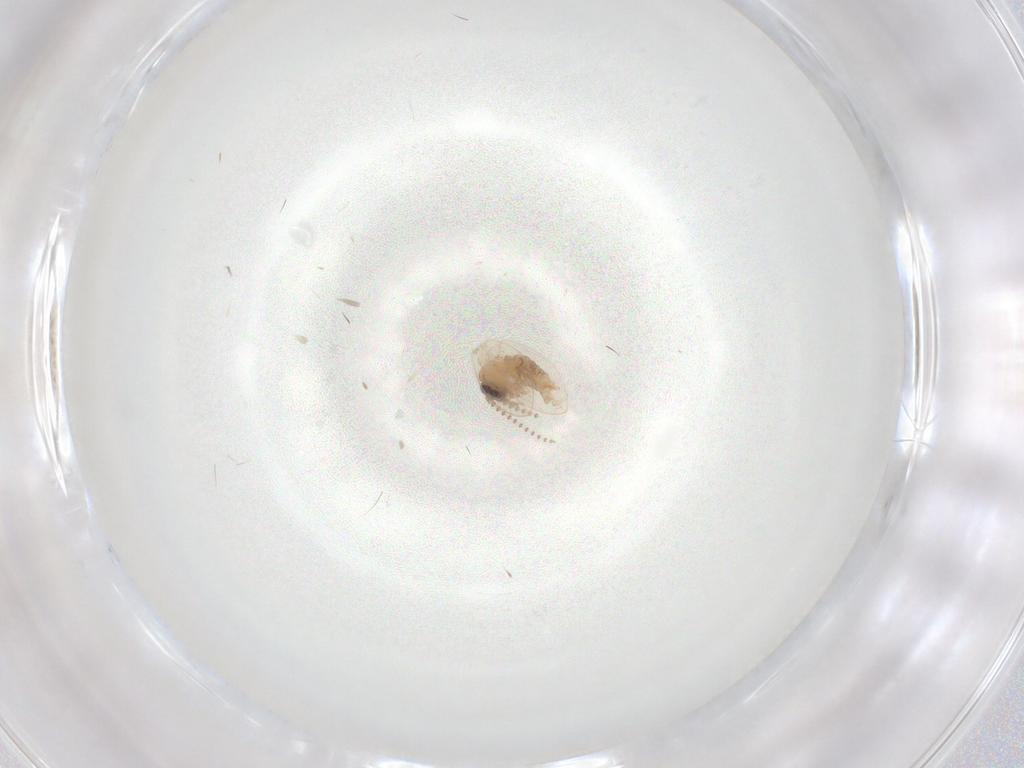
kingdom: Animalia
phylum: Arthropoda
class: Insecta
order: Diptera
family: Psychodidae
